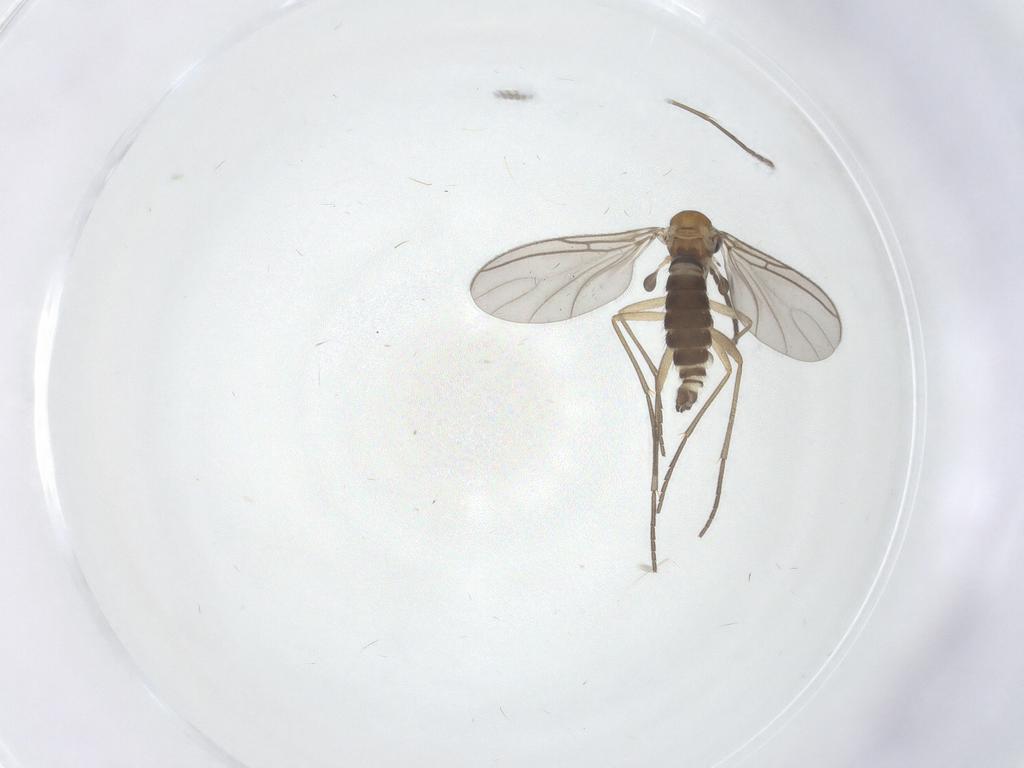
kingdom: Animalia
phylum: Arthropoda
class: Insecta
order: Diptera
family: Sciaridae
